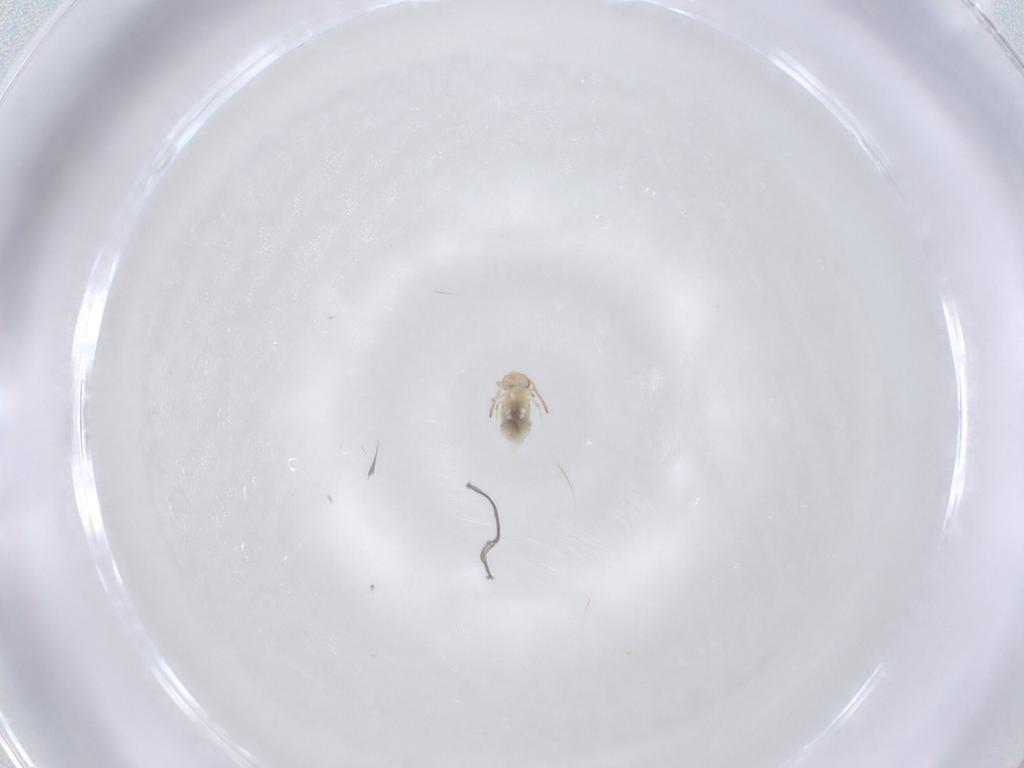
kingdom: Animalia
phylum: Arthropoda
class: Collembola
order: Symphypleona
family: Bourletiellidae
